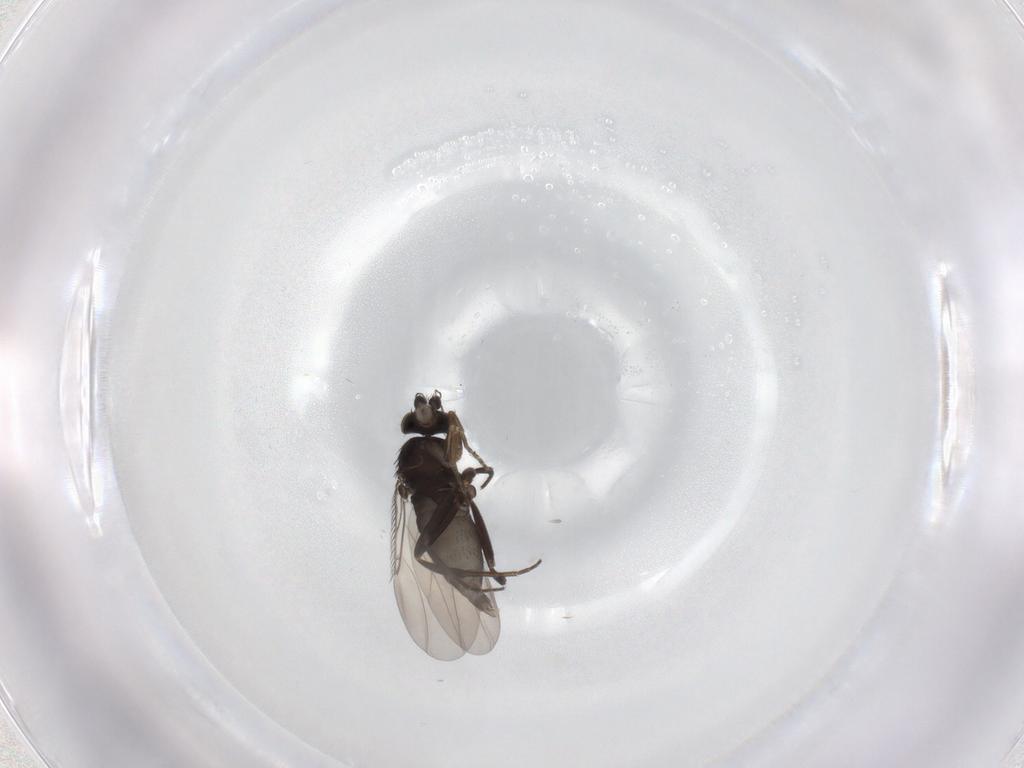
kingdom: Animalia
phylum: Arthropoda
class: Insecta
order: Diptera
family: Phoridae
